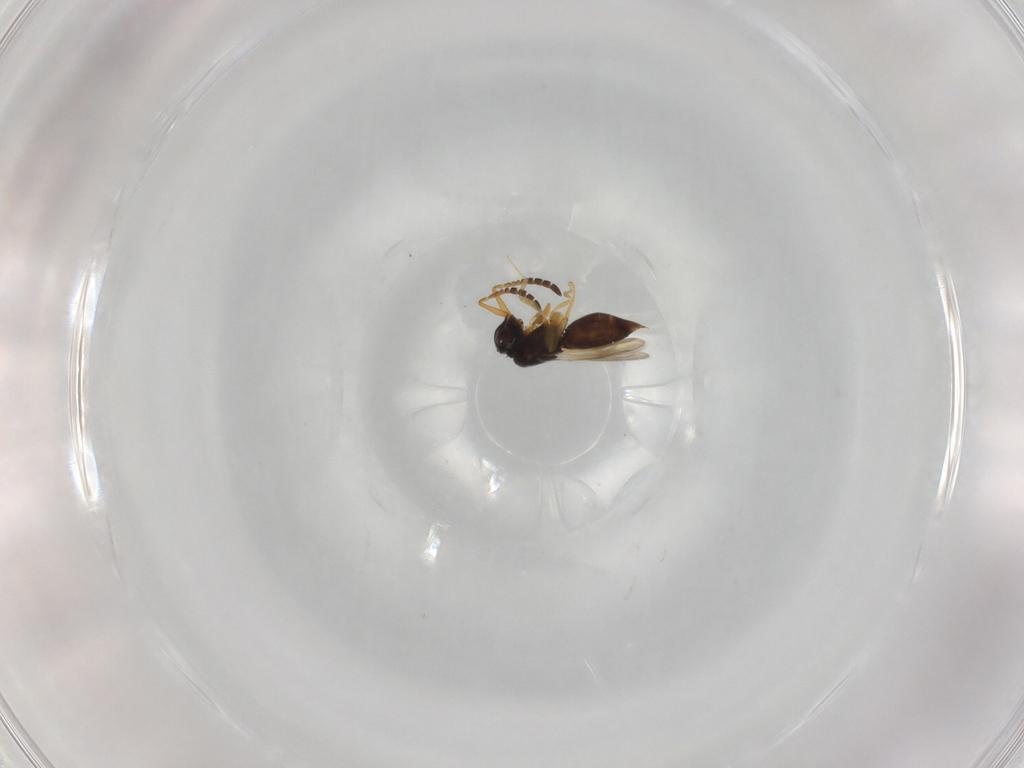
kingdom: Animalia
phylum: Arthropoda
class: Insecta
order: Hymenoptera
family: Ceraphronidae
